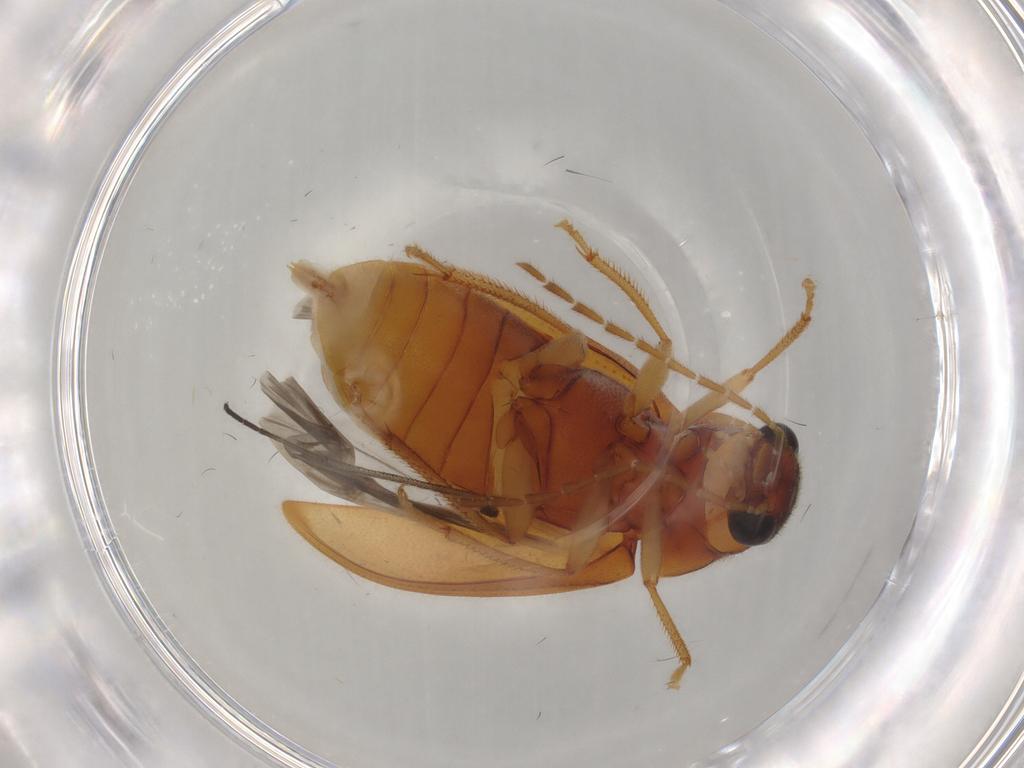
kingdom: Animalia
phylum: Arthropoda
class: Insecta
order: Coleoptera
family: Ptilodactylidae
